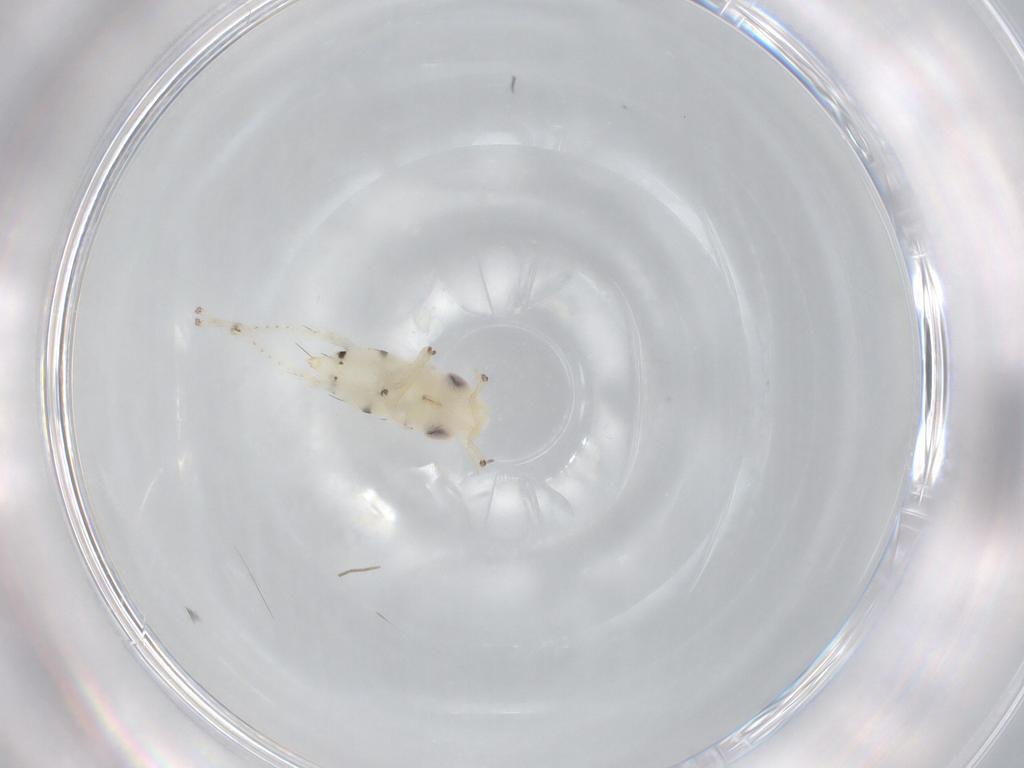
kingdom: Animalia
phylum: Arthropoda
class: Insecta
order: Hemiptera
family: Cicadellidae
